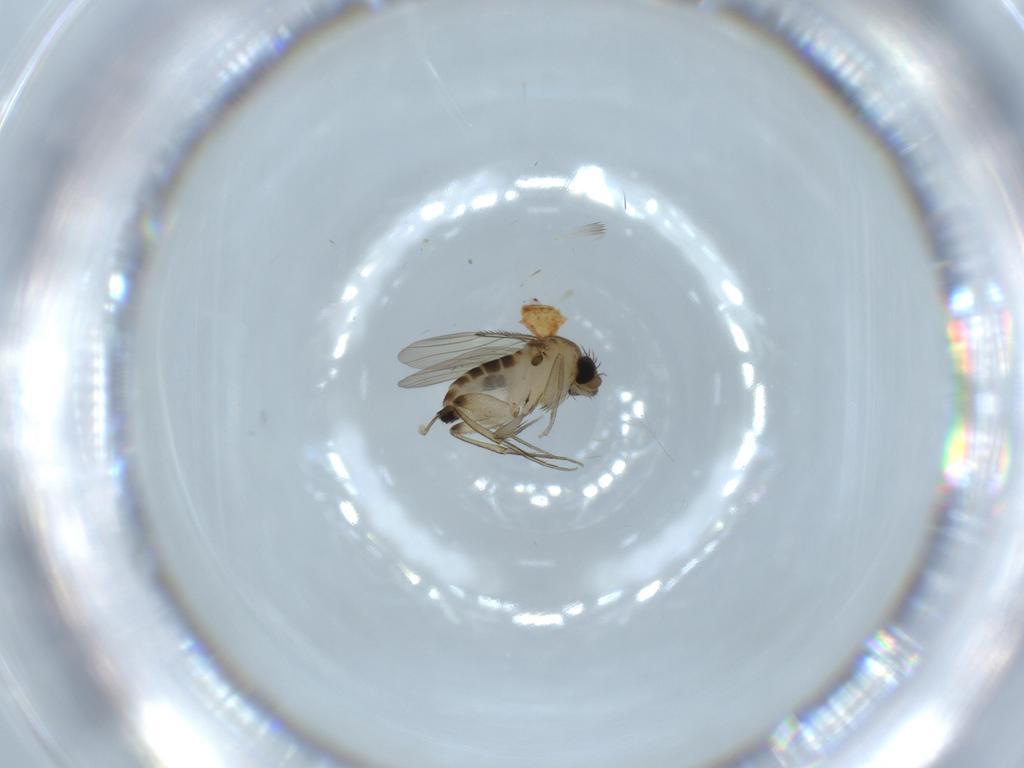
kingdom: Animalia
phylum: Arthropoda
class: Insecta
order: Diptera
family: Phoridae
